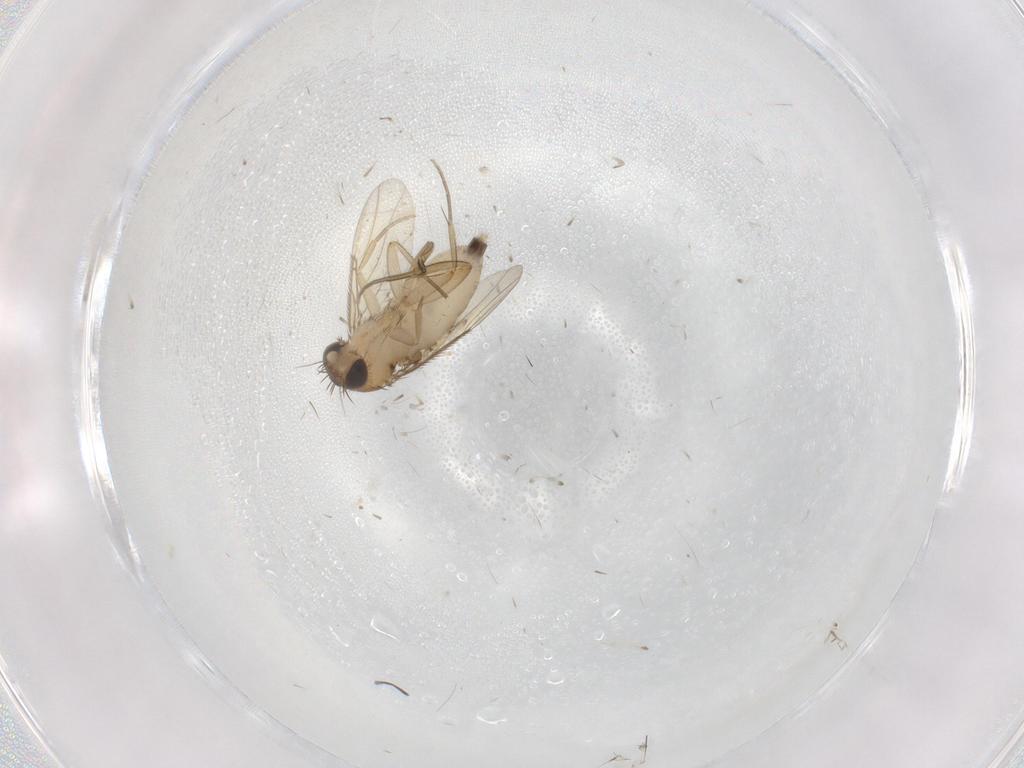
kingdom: Animalia
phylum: Arthropoda
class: Insecta
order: Diptera
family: Phoridae
